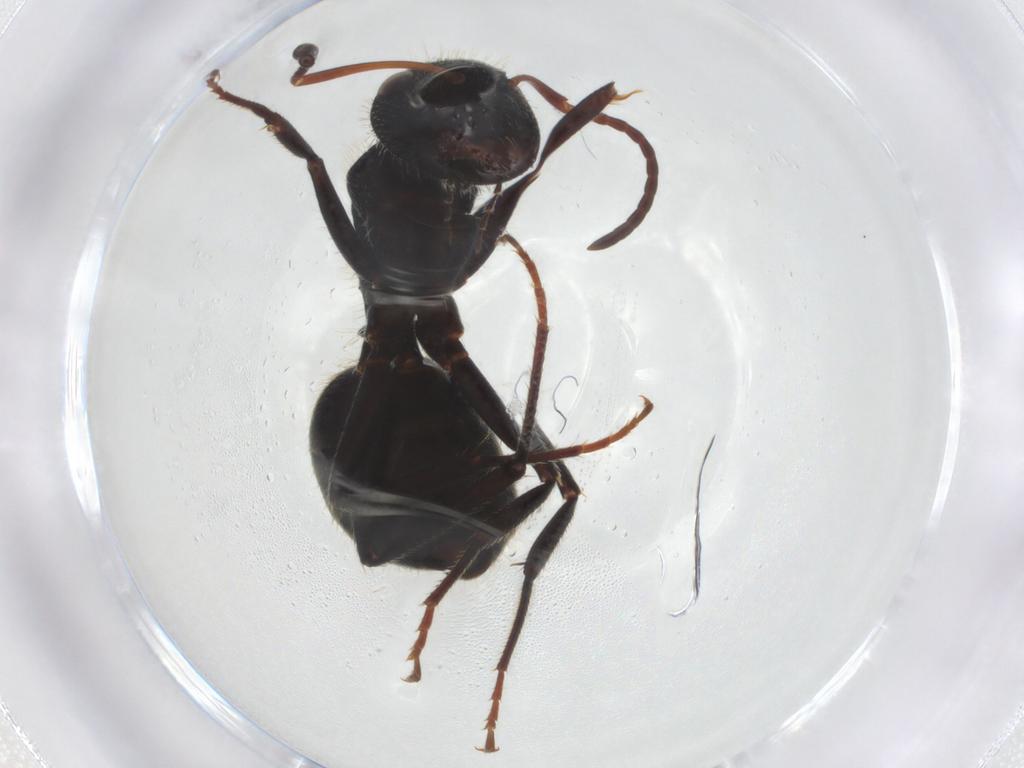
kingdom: Animalia
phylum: Arthropoda
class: Insecta
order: Hymenoptera
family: Formicidae
